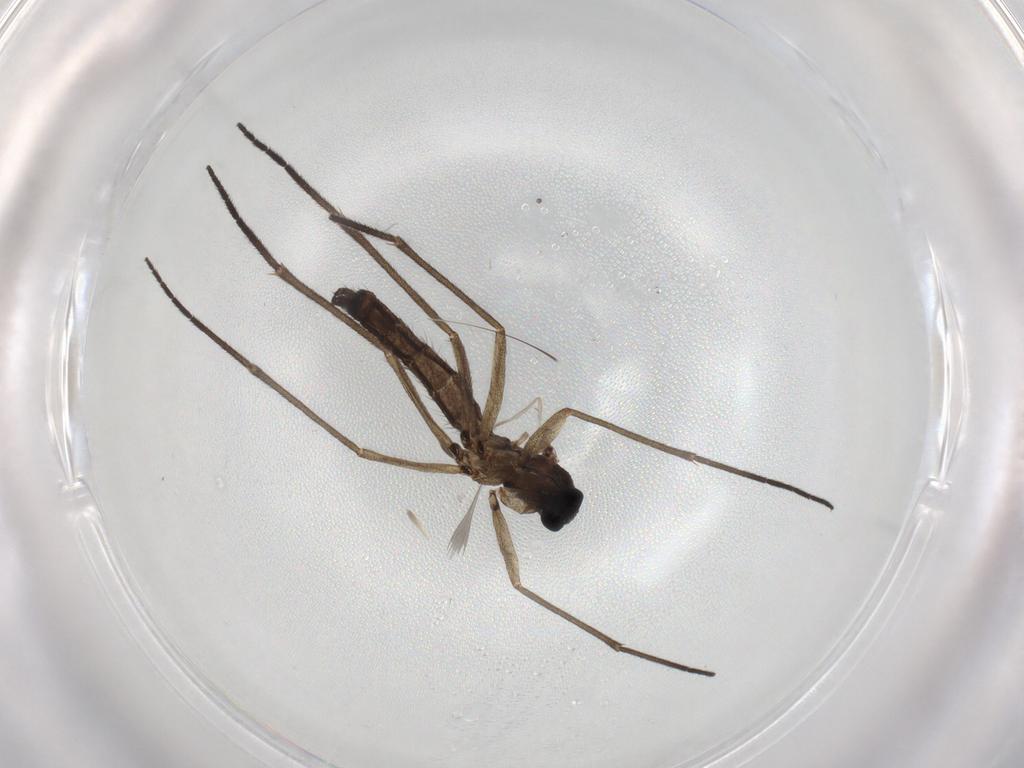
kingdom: Animalia
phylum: Arthropoda
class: Insecta
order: Diptera
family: Sciaridae
